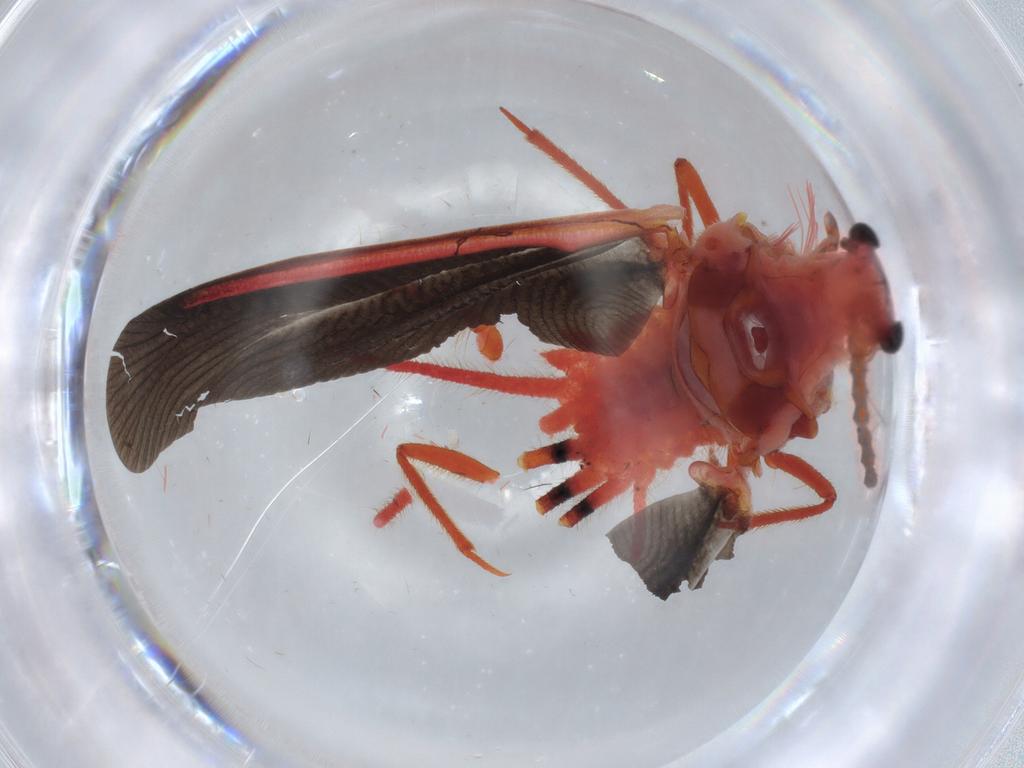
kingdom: Animalia
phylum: Arthropoda
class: Insecta
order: Hemiptera
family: Monophlebidae
